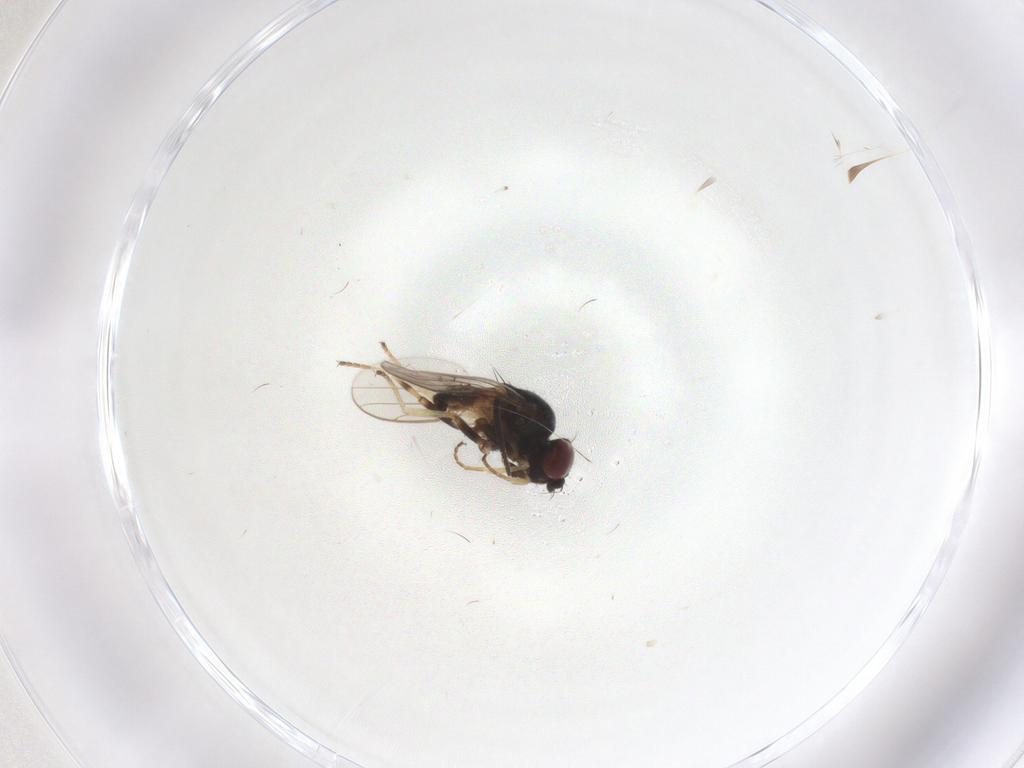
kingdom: Animalia
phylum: Arthropoda
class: Insecta
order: Diptera
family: Chloropidae
